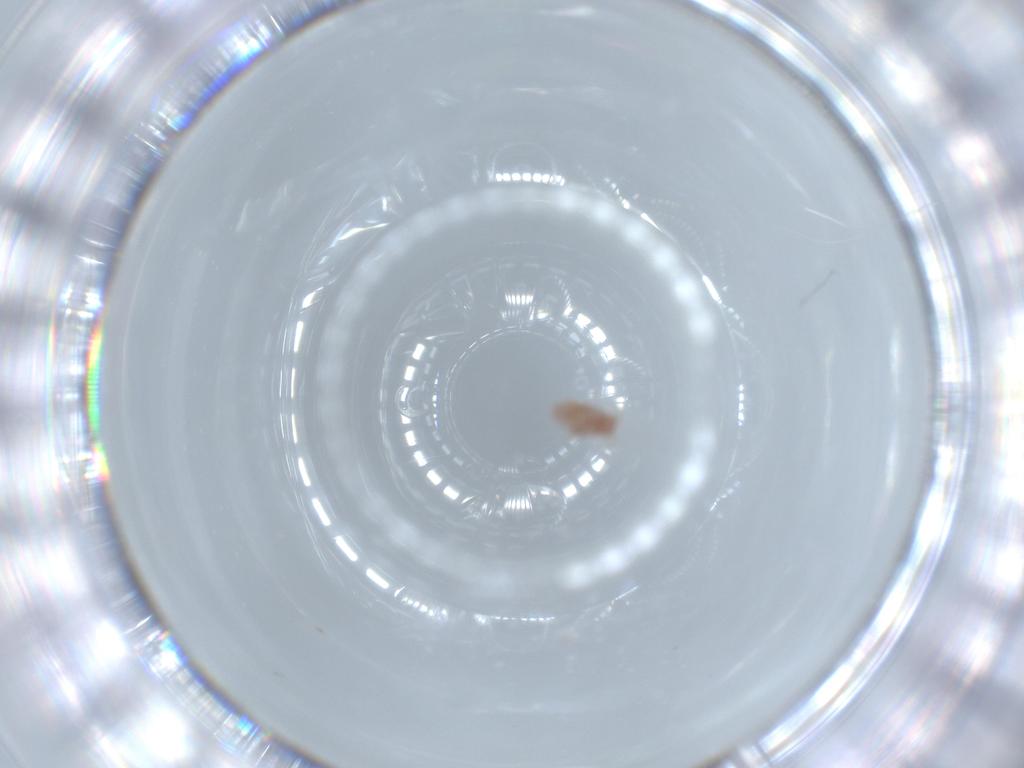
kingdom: Animalia
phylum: Arthropoda
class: Insecta
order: Hemiptera
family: Pseudococcidae
